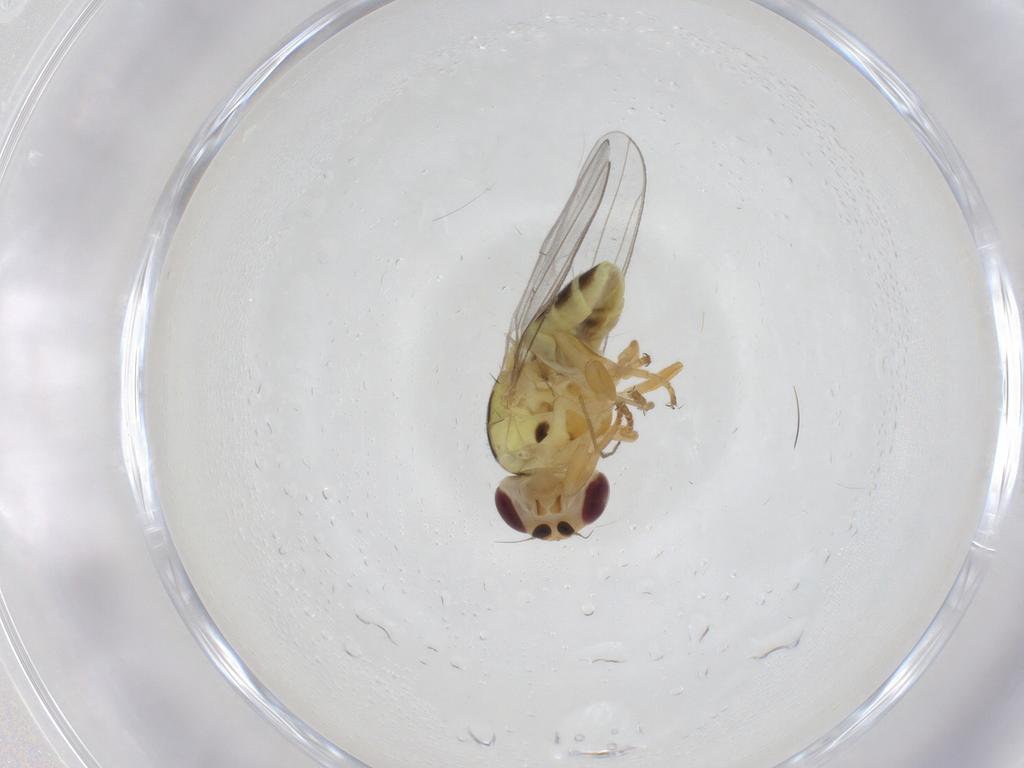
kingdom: Animalia
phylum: Arthropoda
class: Insecta
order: Diptera
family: Chloropidae
